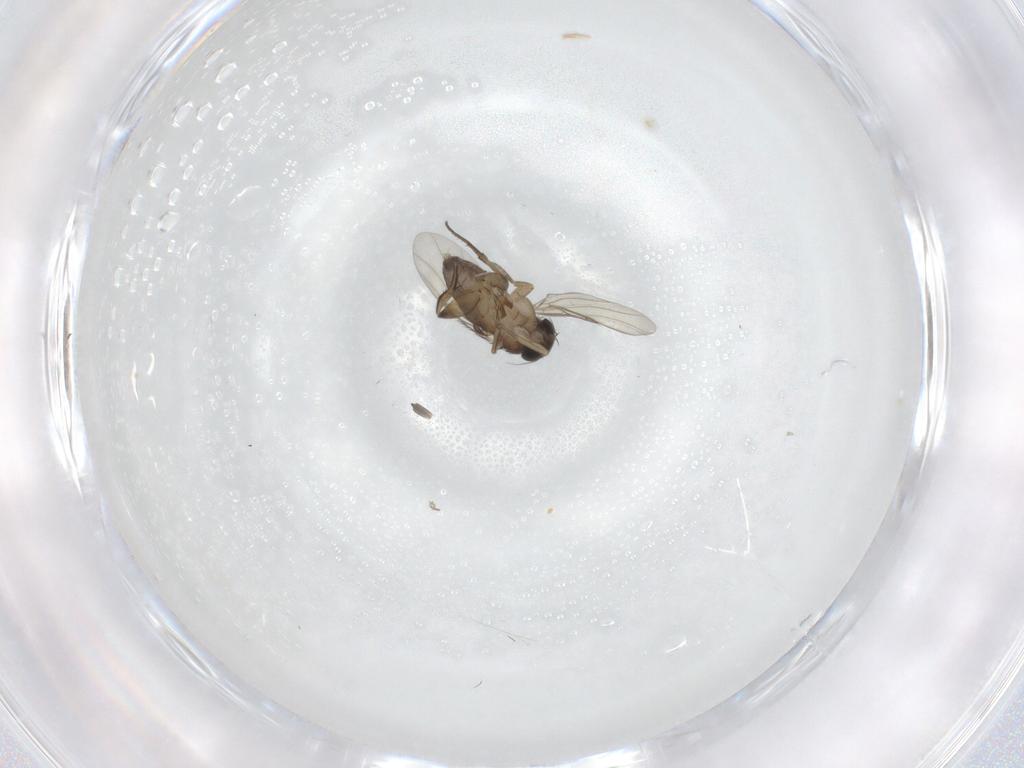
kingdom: Animalia
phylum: Arthropoda
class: Insecta
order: Diptera
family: Phoridae
